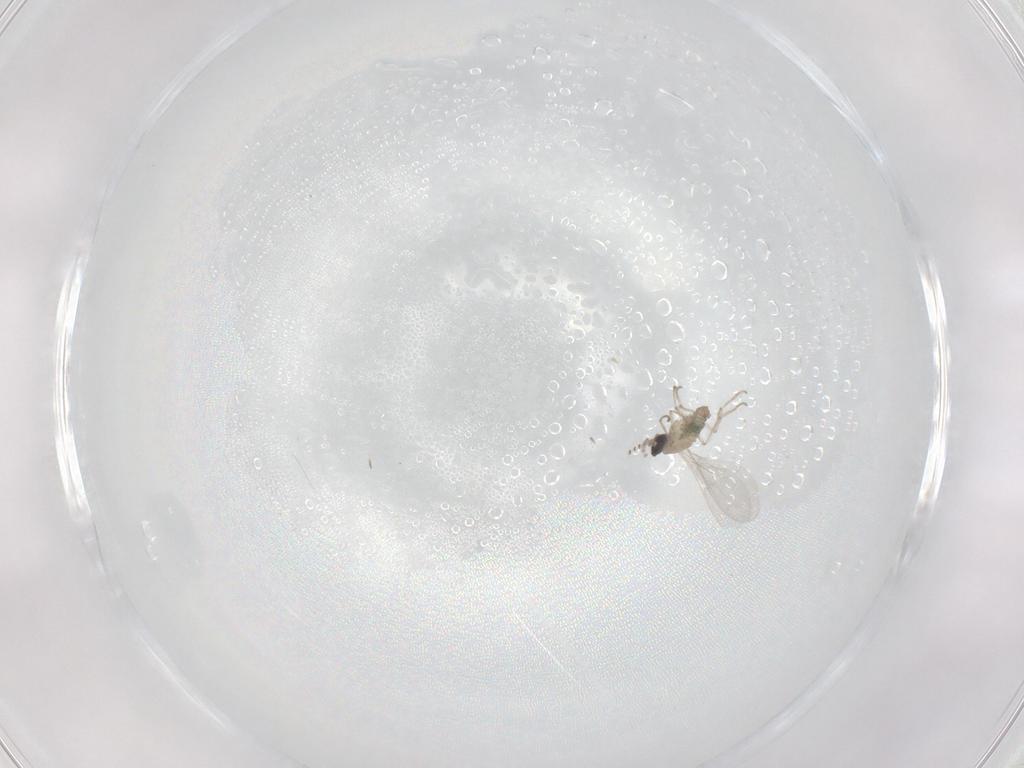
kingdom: Animalia
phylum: Arthropoda
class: Insecta
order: Diptera
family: Cecidomyiidae
